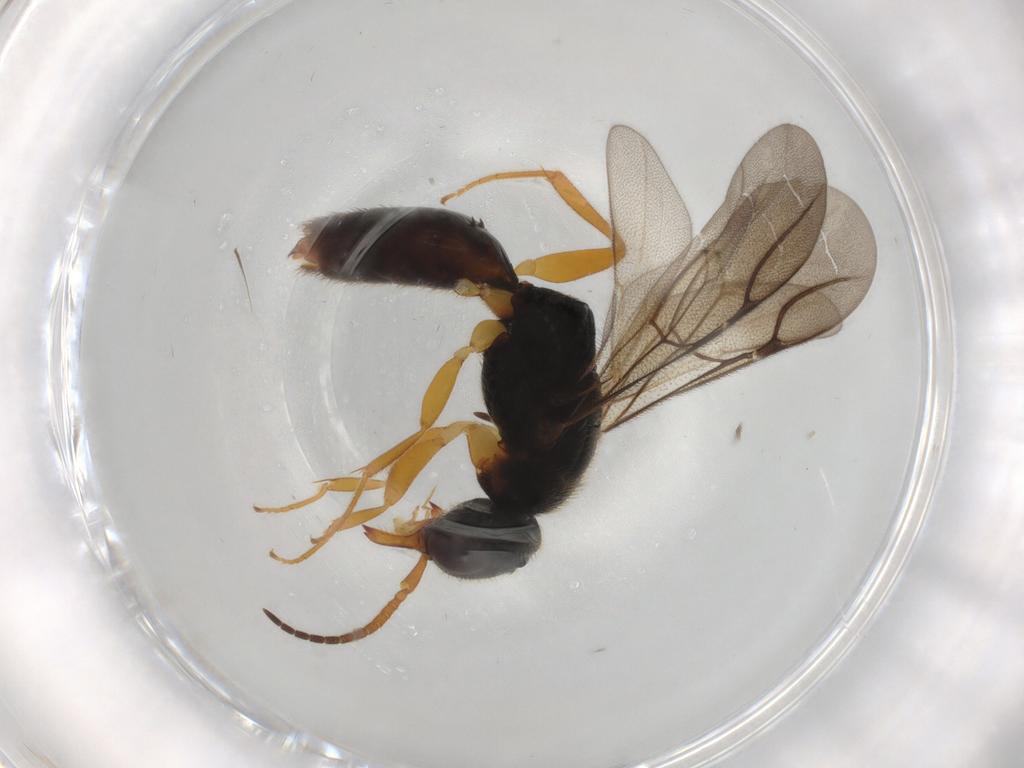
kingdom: Animalia
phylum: Arthropoda
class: Insecta
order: Hymenoptera
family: Bethylidae
